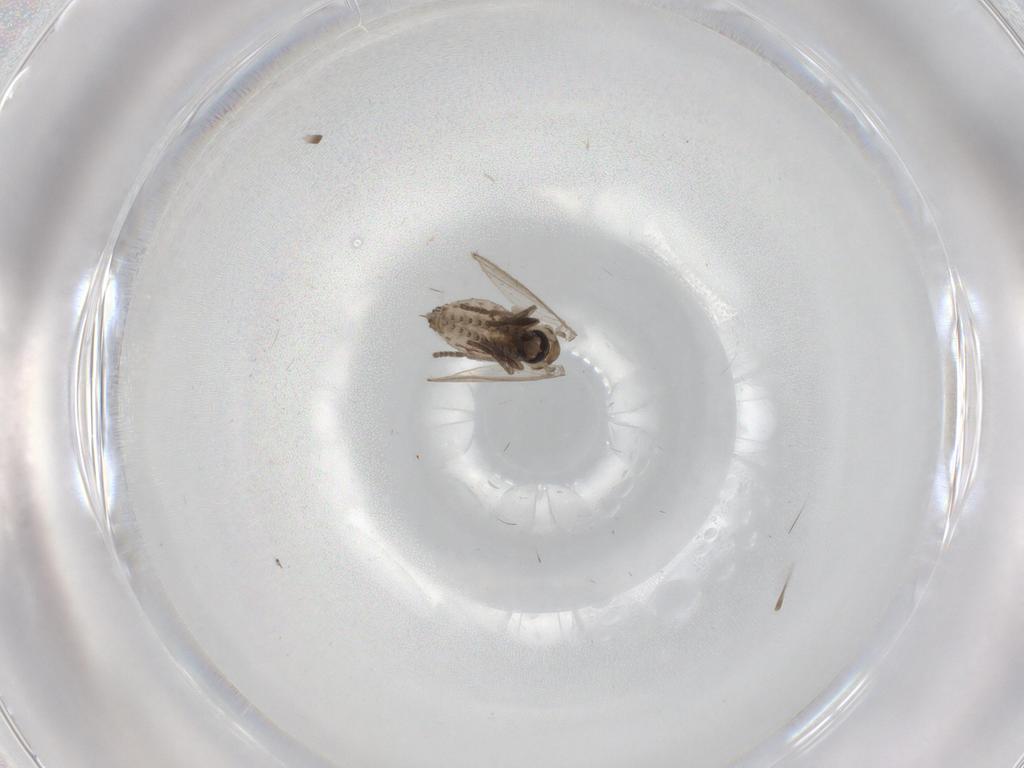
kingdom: Animalia
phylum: Arthropoda
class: Insecta
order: Diptera
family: Psychodidae
